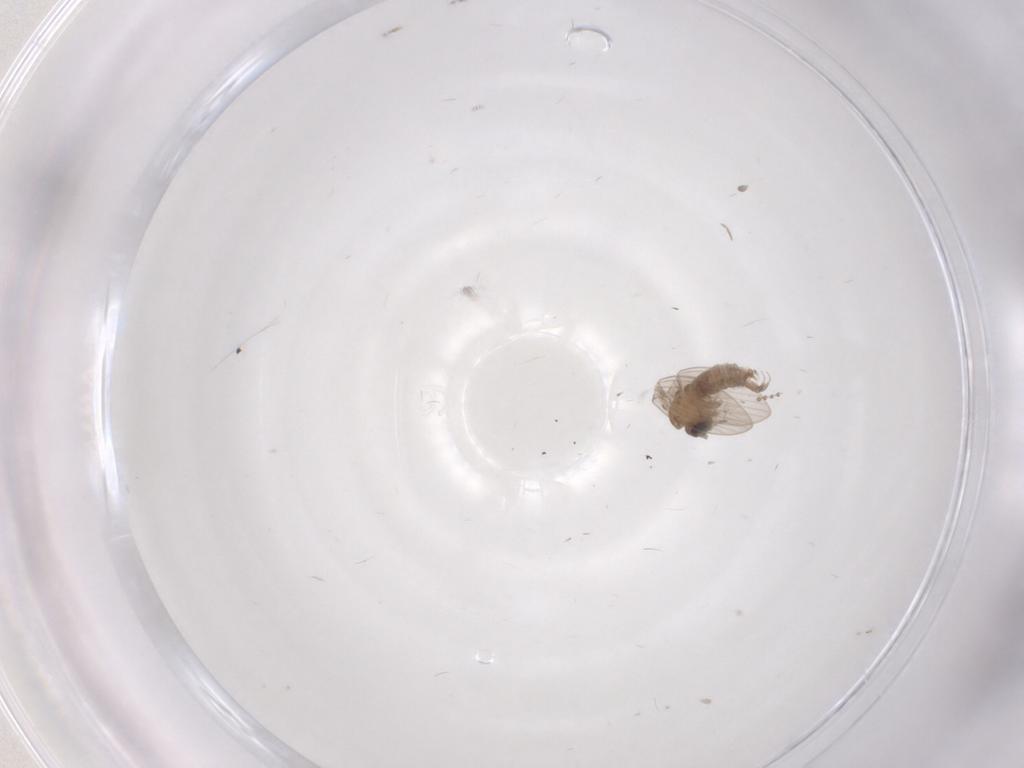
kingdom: Animalia
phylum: Arthropoda
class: Insecta
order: Diptera
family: Psychodidae
